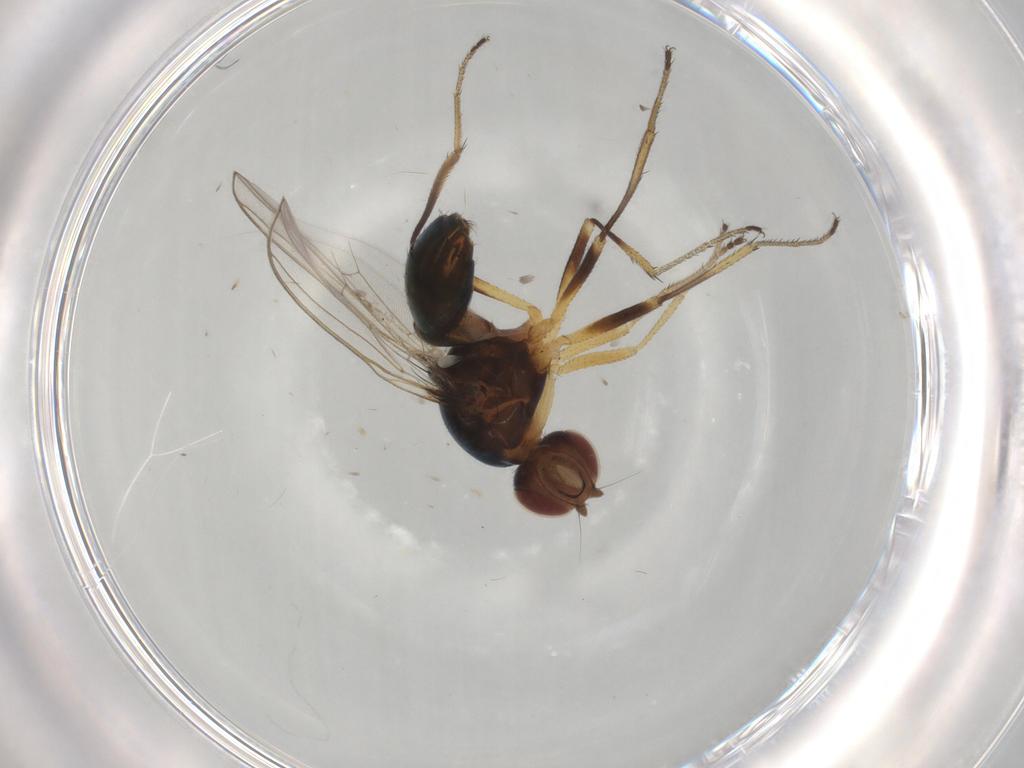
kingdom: Animalia
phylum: Arthropoda
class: Insecta
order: Diptera
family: Sepsidae
